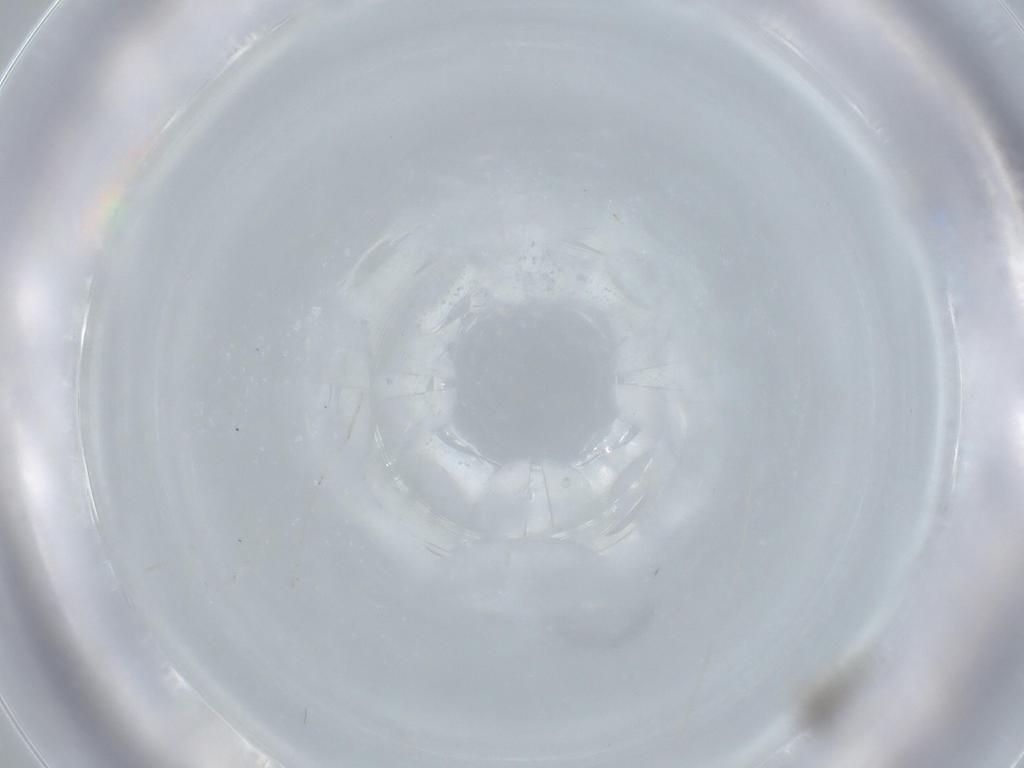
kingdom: Animalia
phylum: Arthropoda
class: Insecta
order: Diptera
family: Cecidomyiidae
